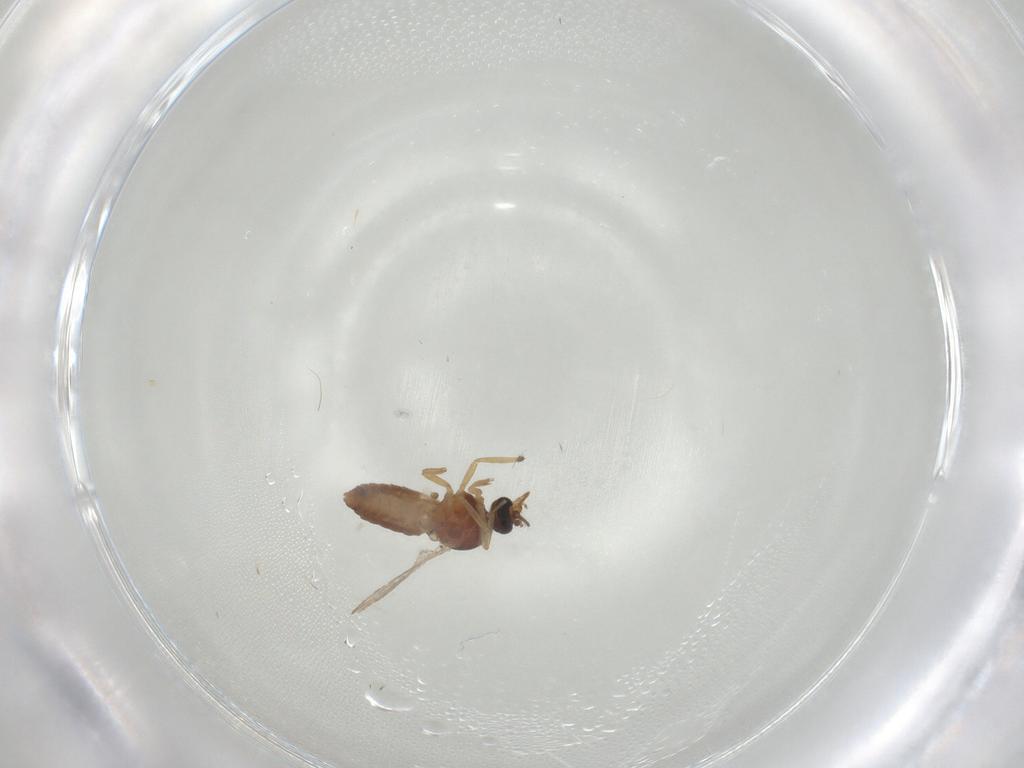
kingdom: Animalia
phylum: Arthropoda
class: Insecta
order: Diptera
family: Ceratopogonidae
